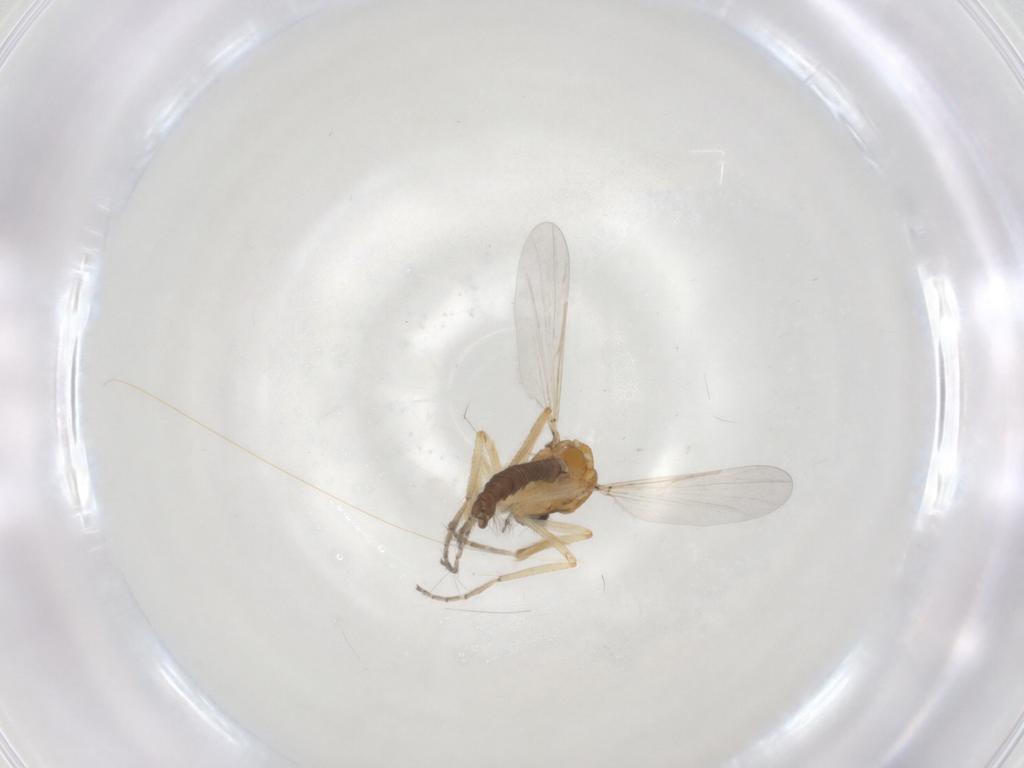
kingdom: Animalia
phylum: Arthropoda
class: Insecta
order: Diptera
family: Ceratopogonidae
